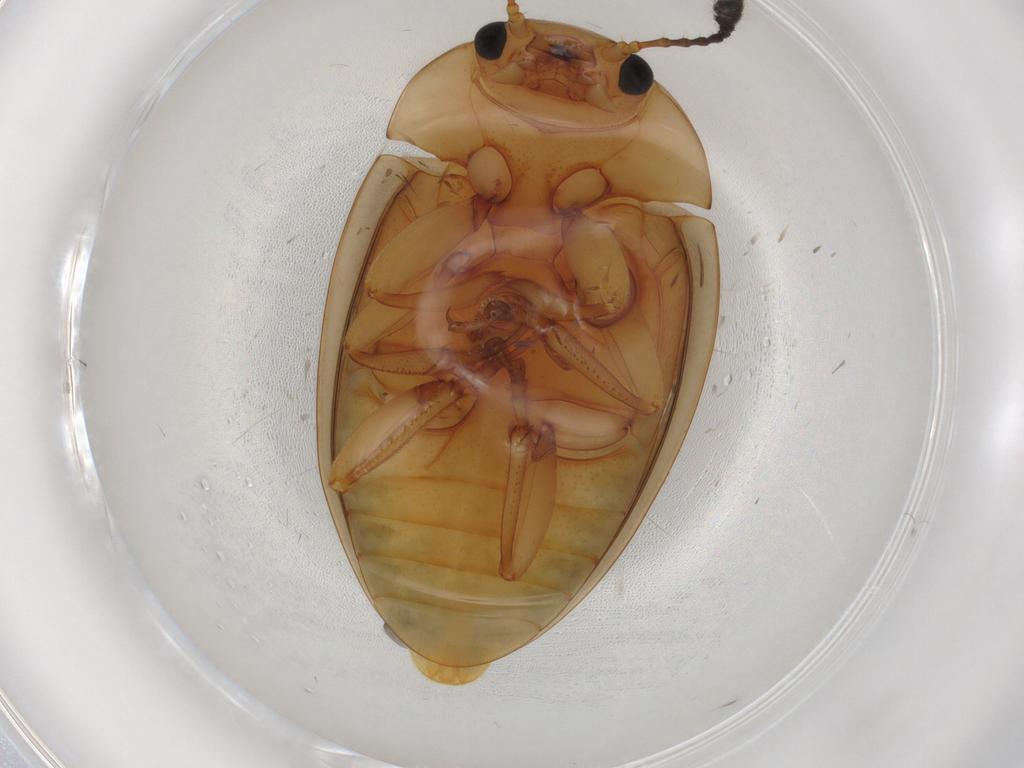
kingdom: Animalia
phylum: Arthropoda
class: Insecta
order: Coleoptera
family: Erotylidae
